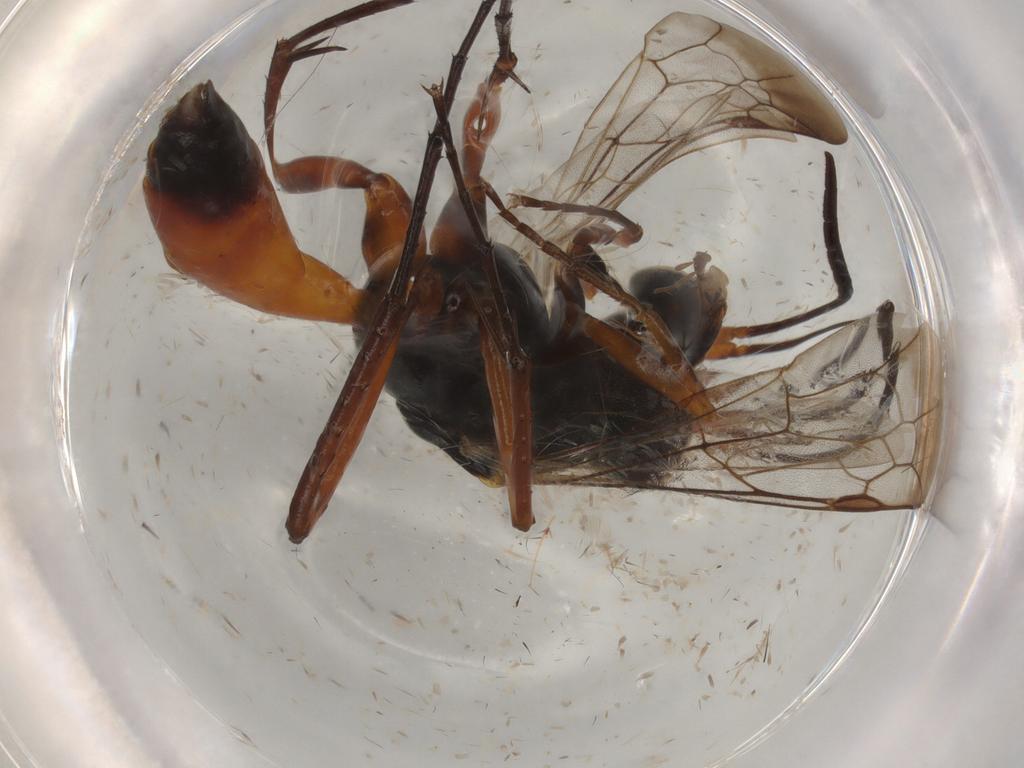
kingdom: Animalia
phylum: Arthropoda
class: Insecta
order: Hymenoptera
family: Pompilidae
